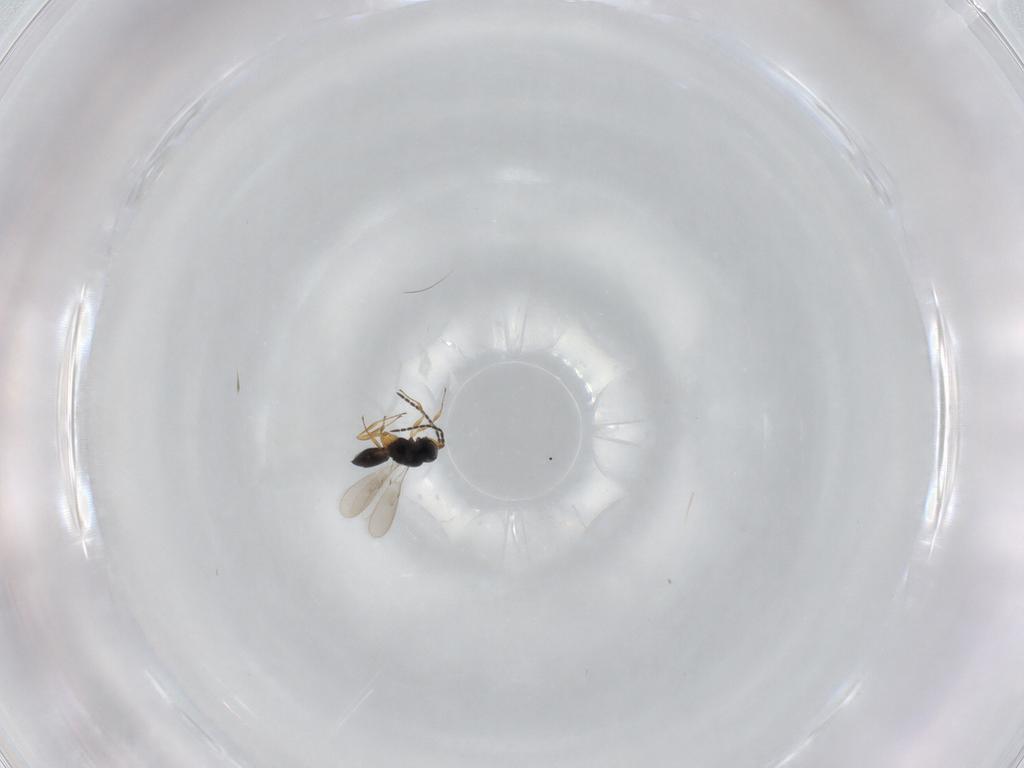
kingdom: Animalia
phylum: Arthropoda
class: Insecta
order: Hymenoptera
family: Scelionidae
